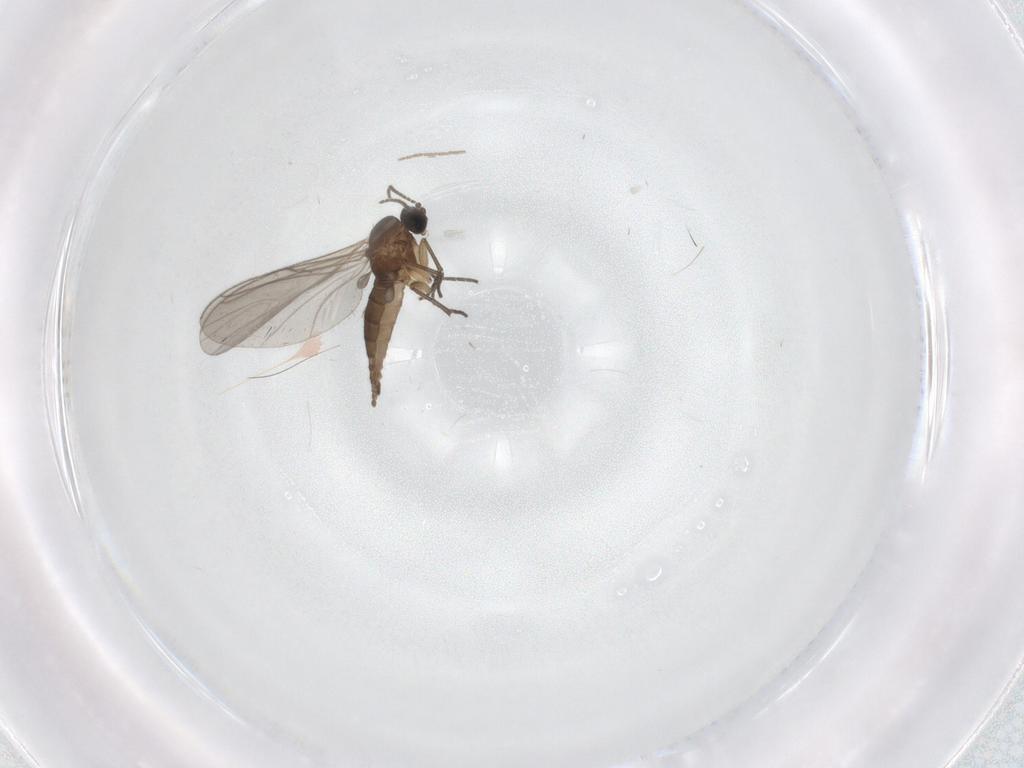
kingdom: Animalia
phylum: Arthropoda
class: Insecta
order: Diptera
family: Sciaridae
